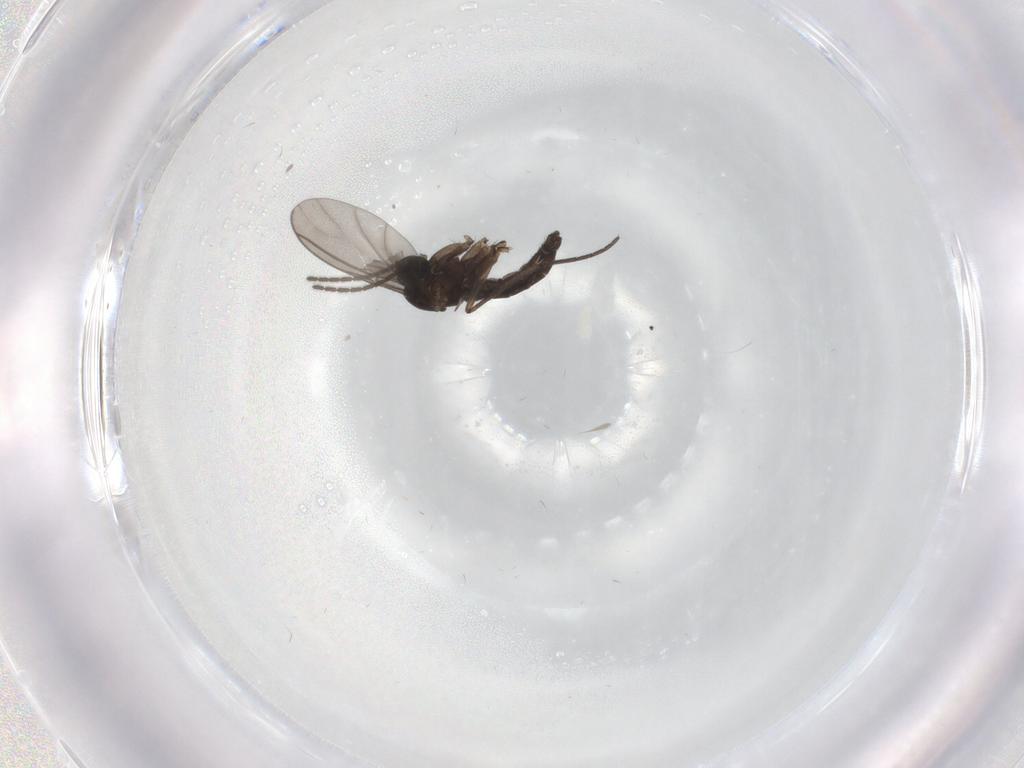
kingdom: Animalia
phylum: Arthropoda
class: Insecta
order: Diptera
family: Sciaridae
